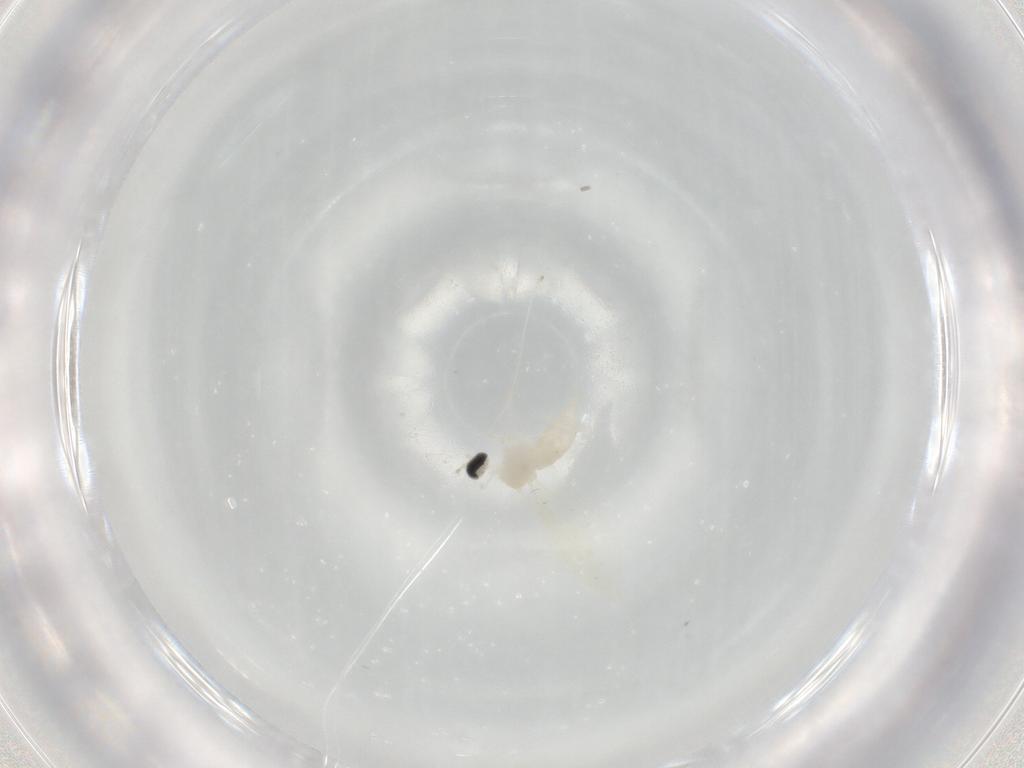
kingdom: Animalia
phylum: Arthropoda
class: Insecta
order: Diptera
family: Cecidomyiidae
